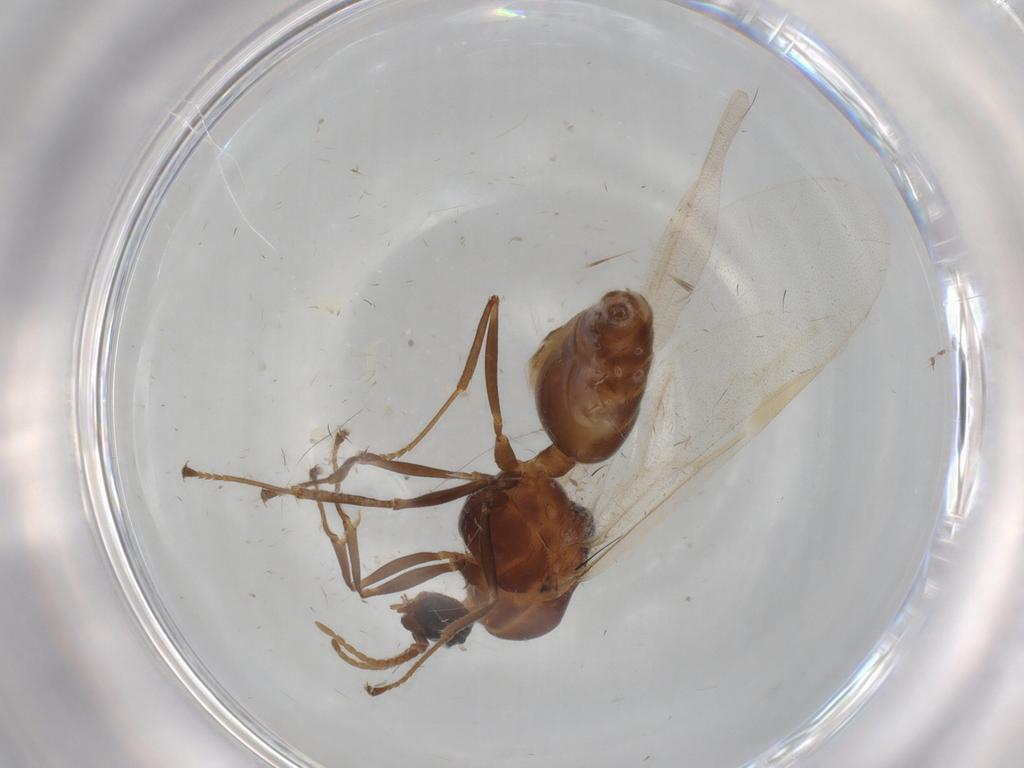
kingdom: Animalia
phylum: Arthropoda
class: Insecta
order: Hymenoptera
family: Formicidae
